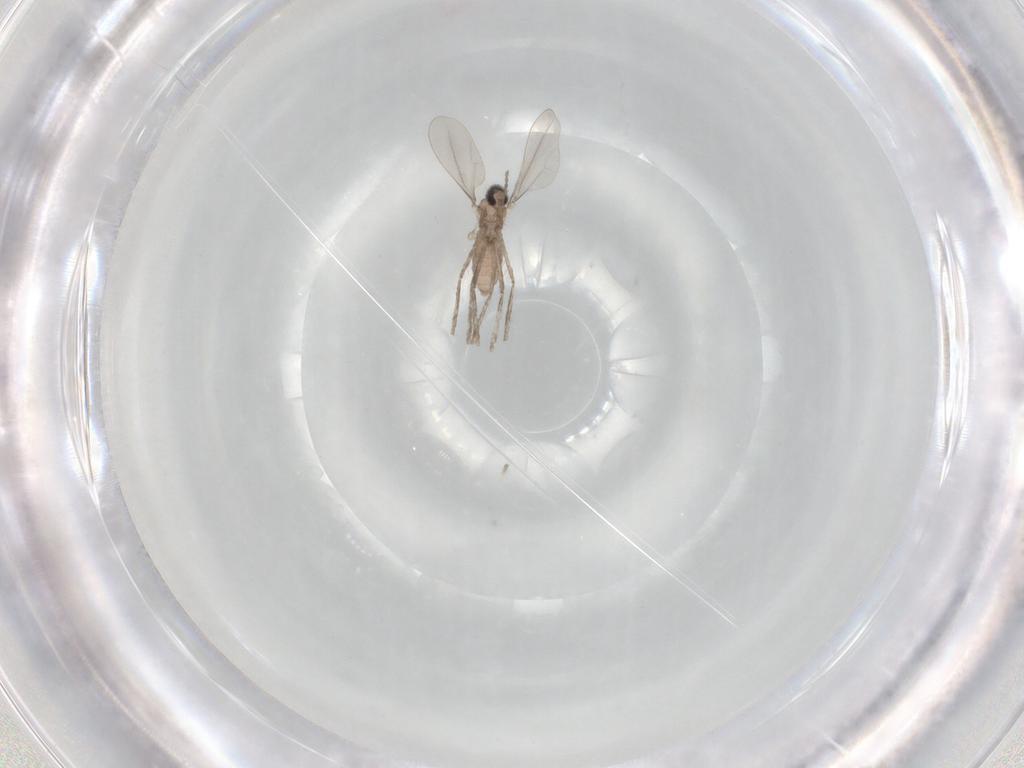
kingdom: Animalia
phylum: Arthropoda
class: Insecta
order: Diptera
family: Cecidomyiidae
